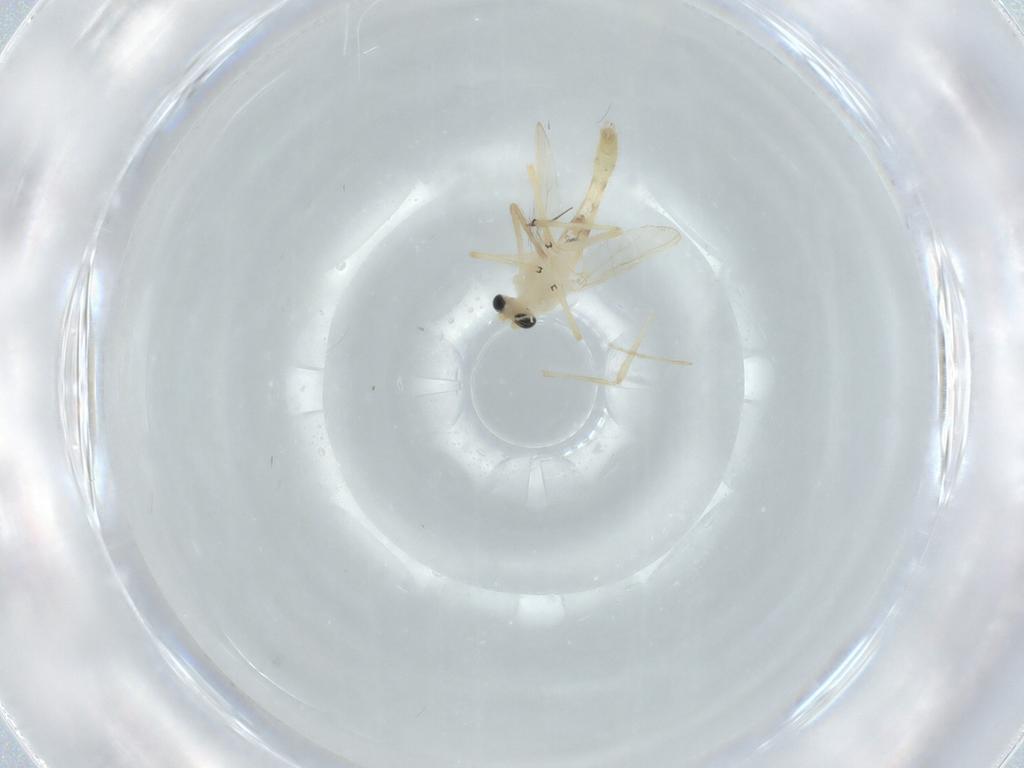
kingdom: Animalia
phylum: Arthropoda
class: Insecta
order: Diptera
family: Chironomidae
